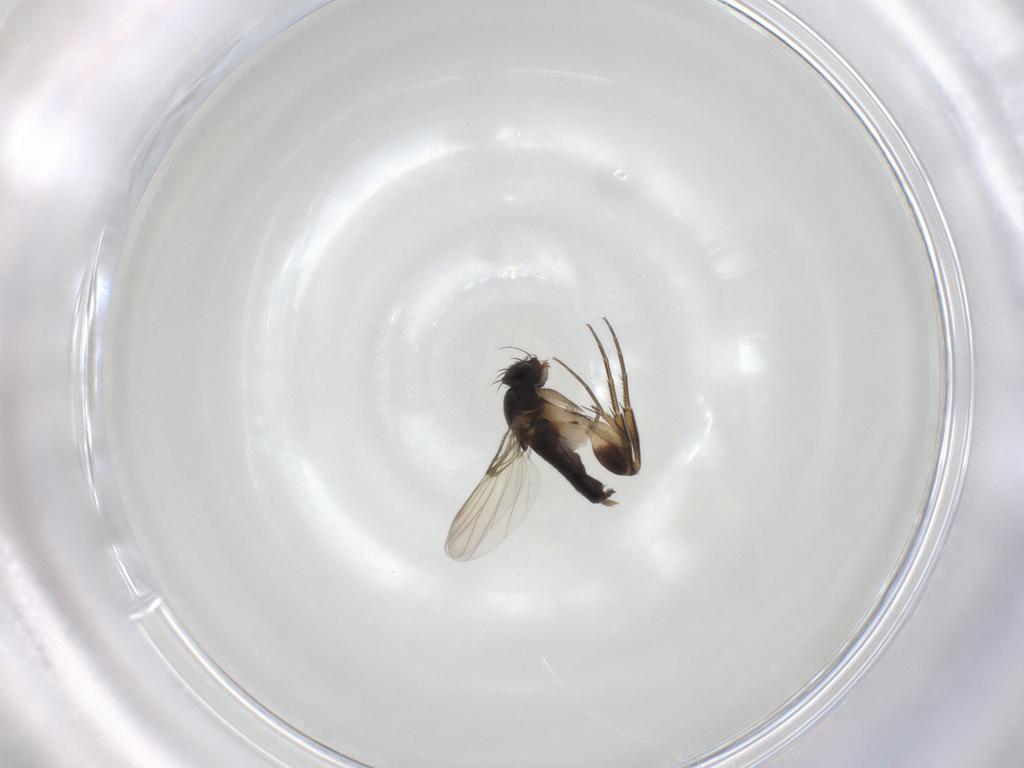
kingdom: Animalia
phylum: Arthropoda
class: Insecta
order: Diptera
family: Phoridae
